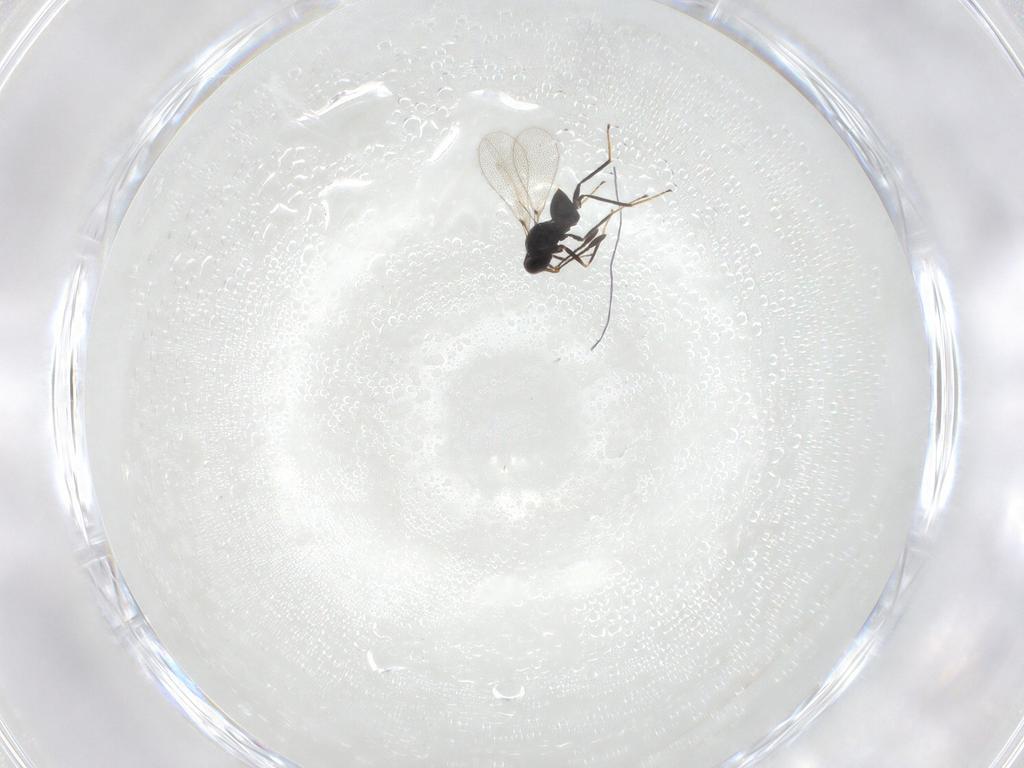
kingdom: Animalia
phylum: Arthropoda
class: Insecta
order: Hymenoptera
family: Mymaridae
